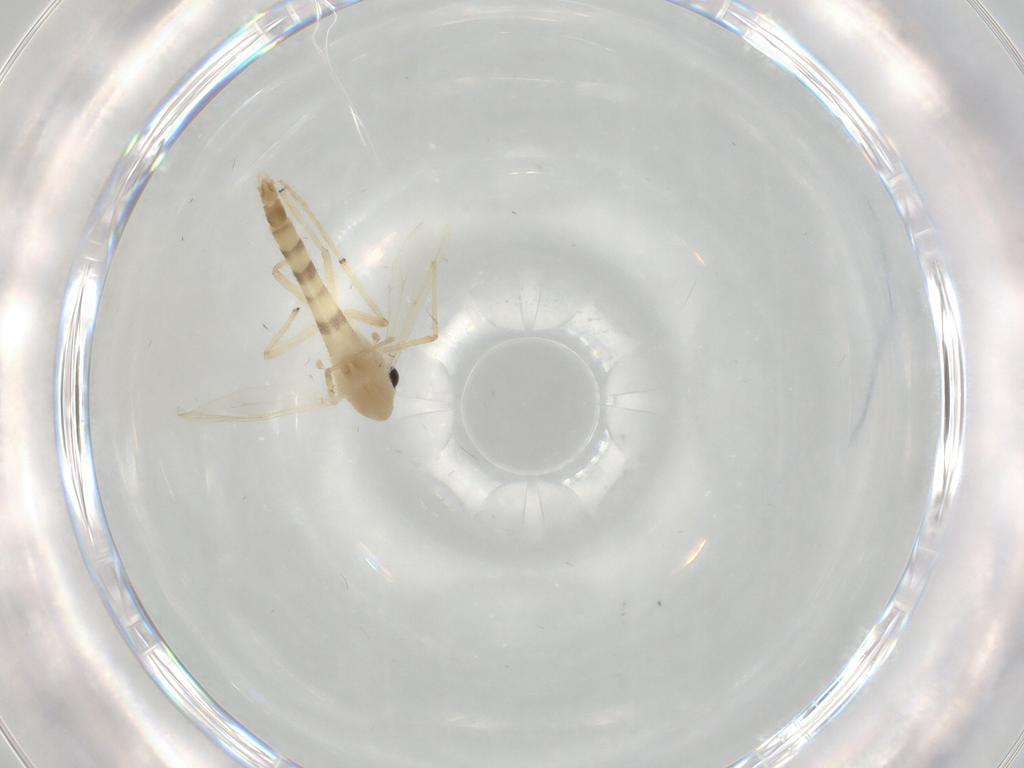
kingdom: Animalia
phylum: Arthropoda
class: Insecta
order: Diptera
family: Chironomidae
